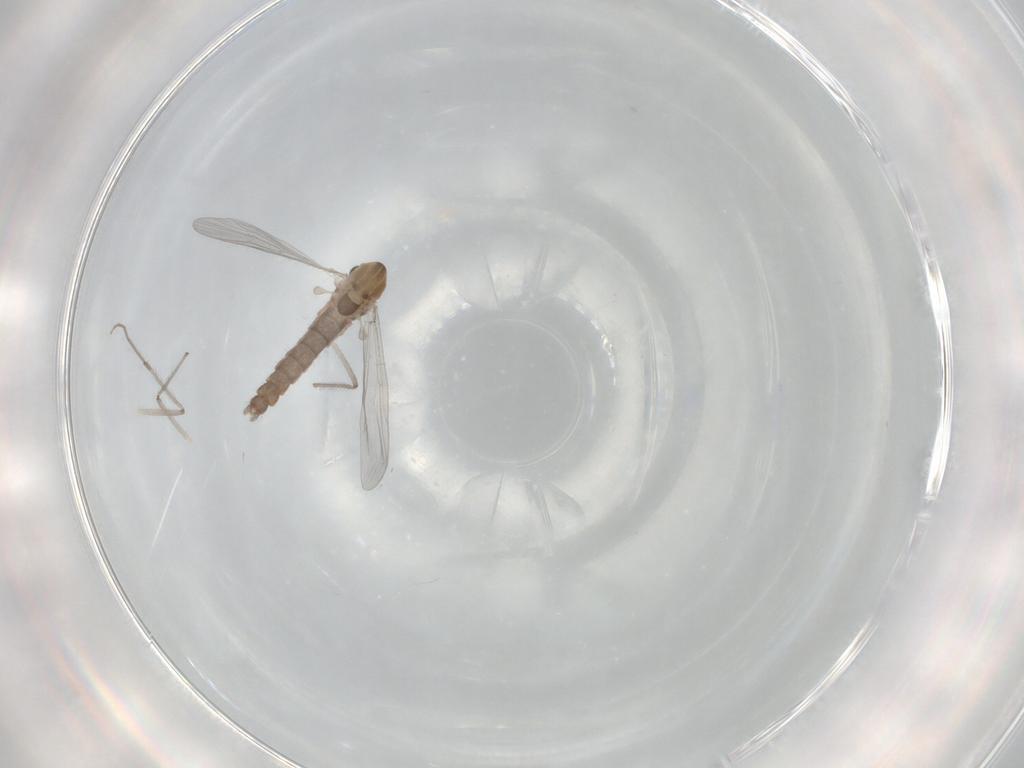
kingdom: Animalia
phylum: Arthropoda
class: Insecta
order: Diptera
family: Chironomidae
